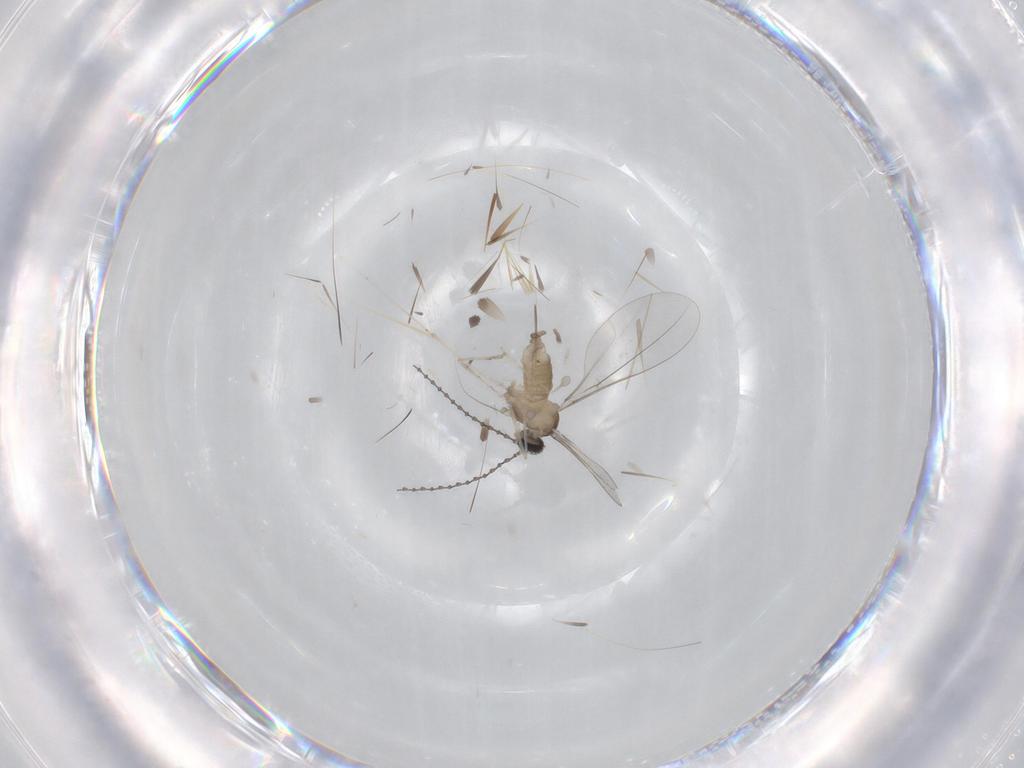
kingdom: Animalia
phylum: Arthropoda
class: Insecta
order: Diptera
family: Cecidomyiidae
